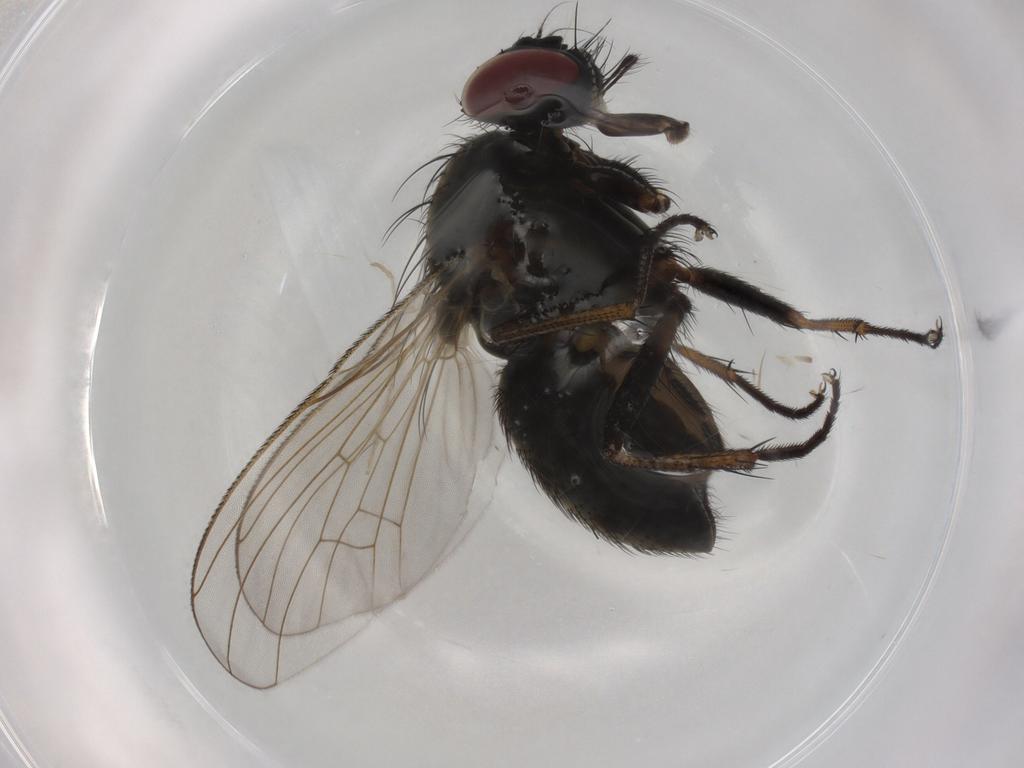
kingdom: Animalia
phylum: Arthropoda
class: Insecta
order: Diptera
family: Muscidae
